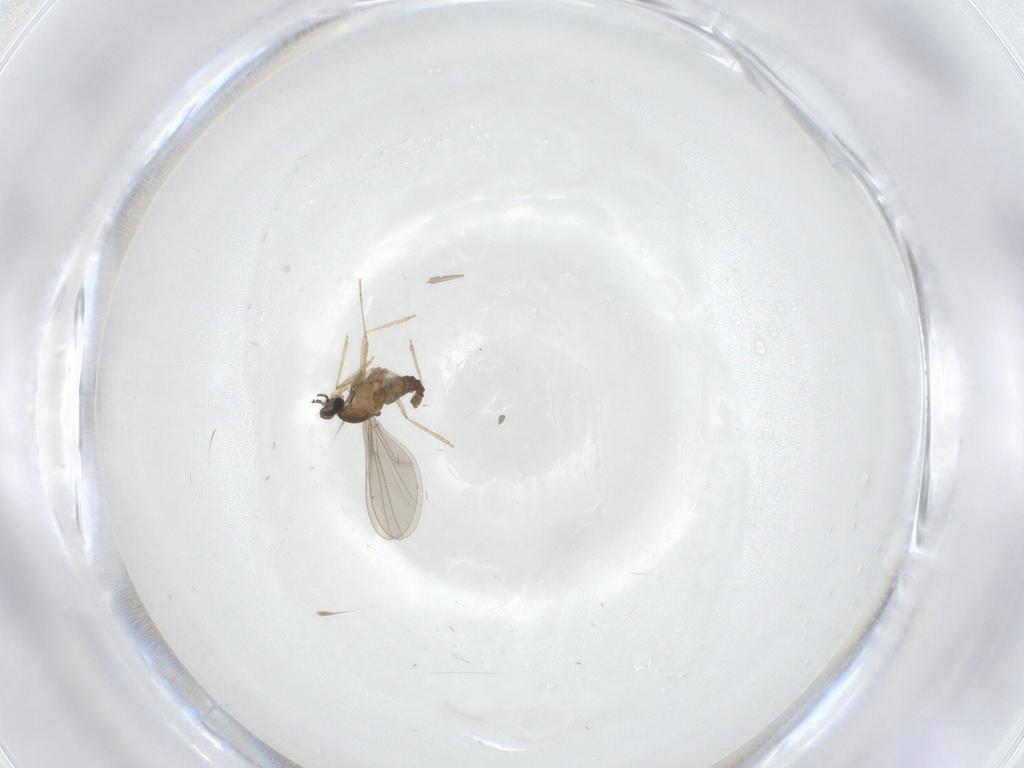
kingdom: Animalia
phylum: Arthropoda
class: Insecta
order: Diptera
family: Cecidomyiidae
